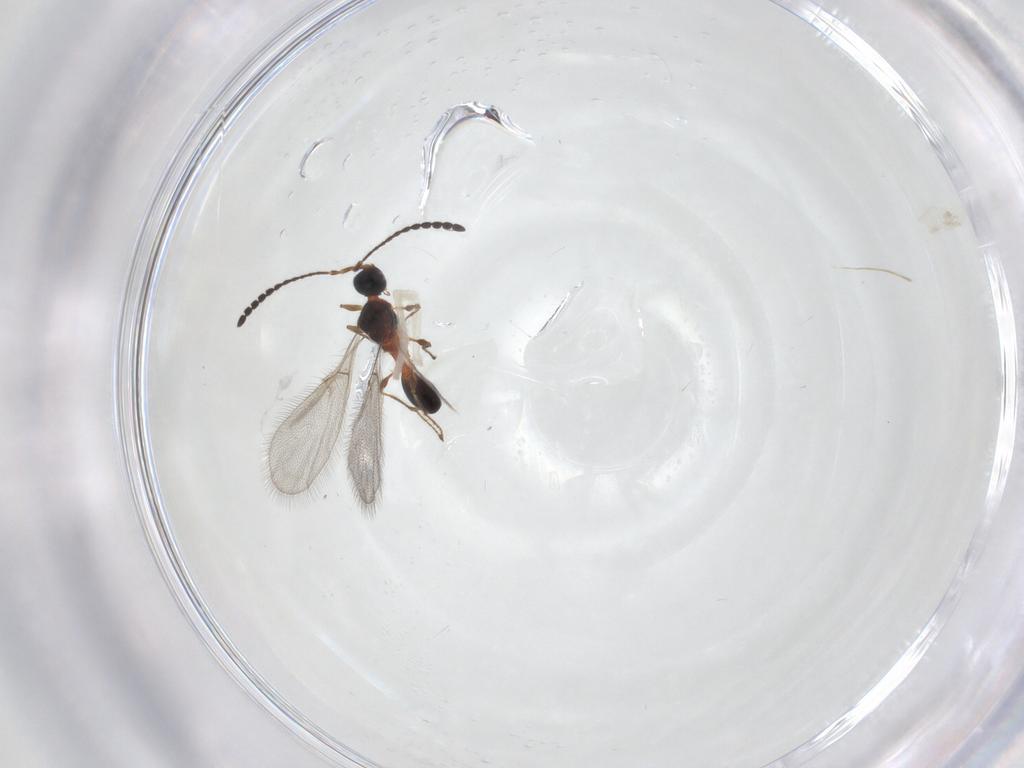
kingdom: Animalia
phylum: Arthropoda
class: Insecta
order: Hymenoptera
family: Diapriidae
